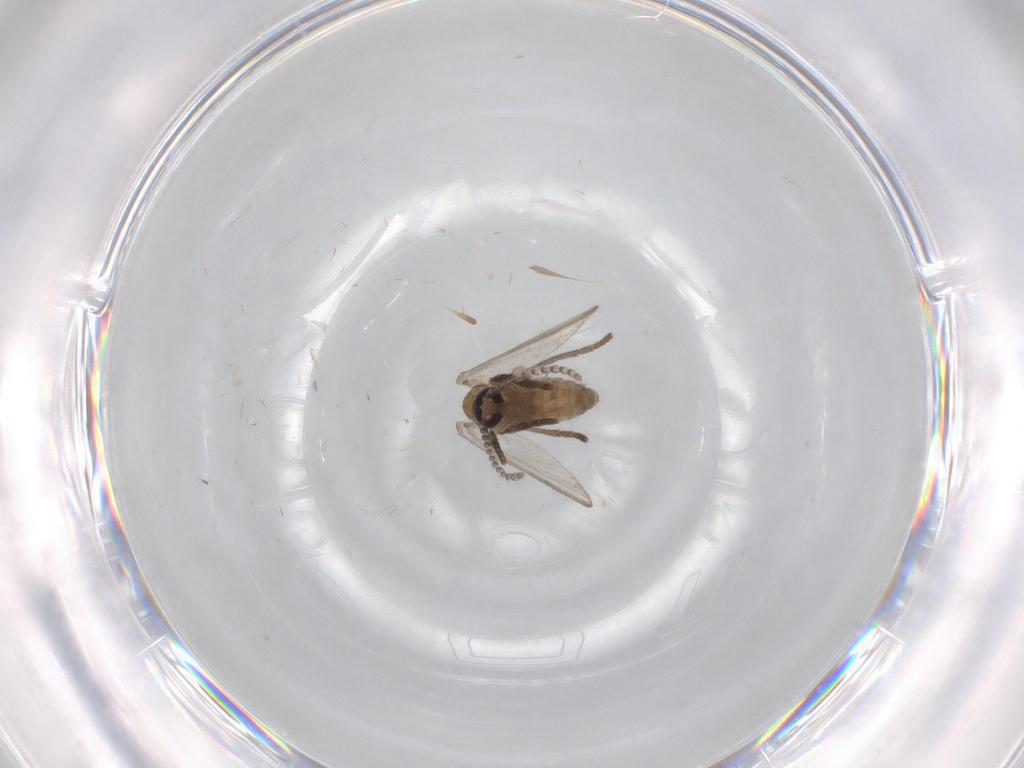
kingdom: Animalia
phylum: Arthropoda
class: Insecta
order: Diptera
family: Psychodidae
